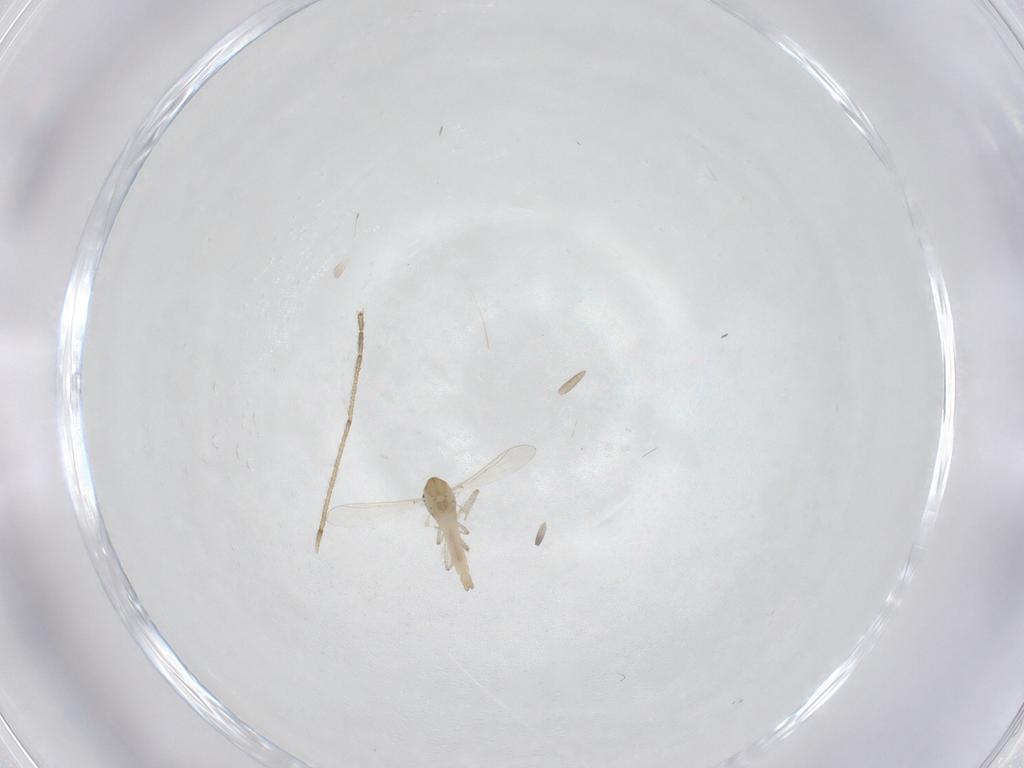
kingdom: Animalia
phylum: Arthropoda
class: Insecta
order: Diptera
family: Chironomidae
